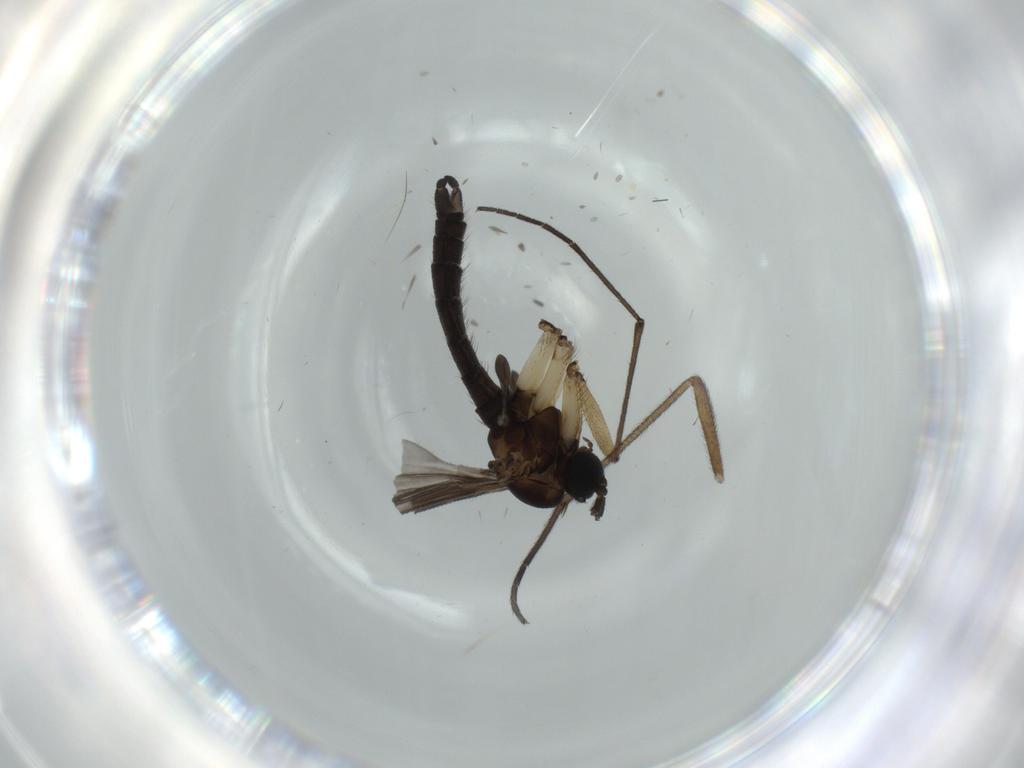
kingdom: Animalia
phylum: Arthropoda
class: Insecta
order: Diptera
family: Sciaridae
